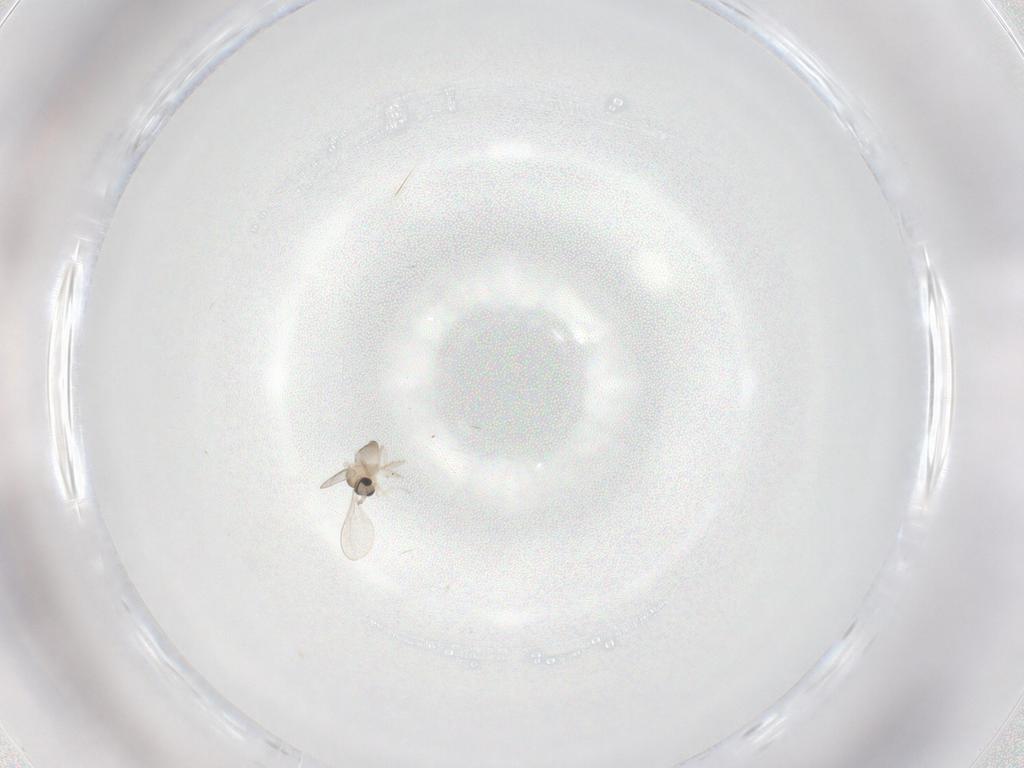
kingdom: Animalia
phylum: Arthropoda
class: Insecta
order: Diptera
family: Cecidomyiidae
